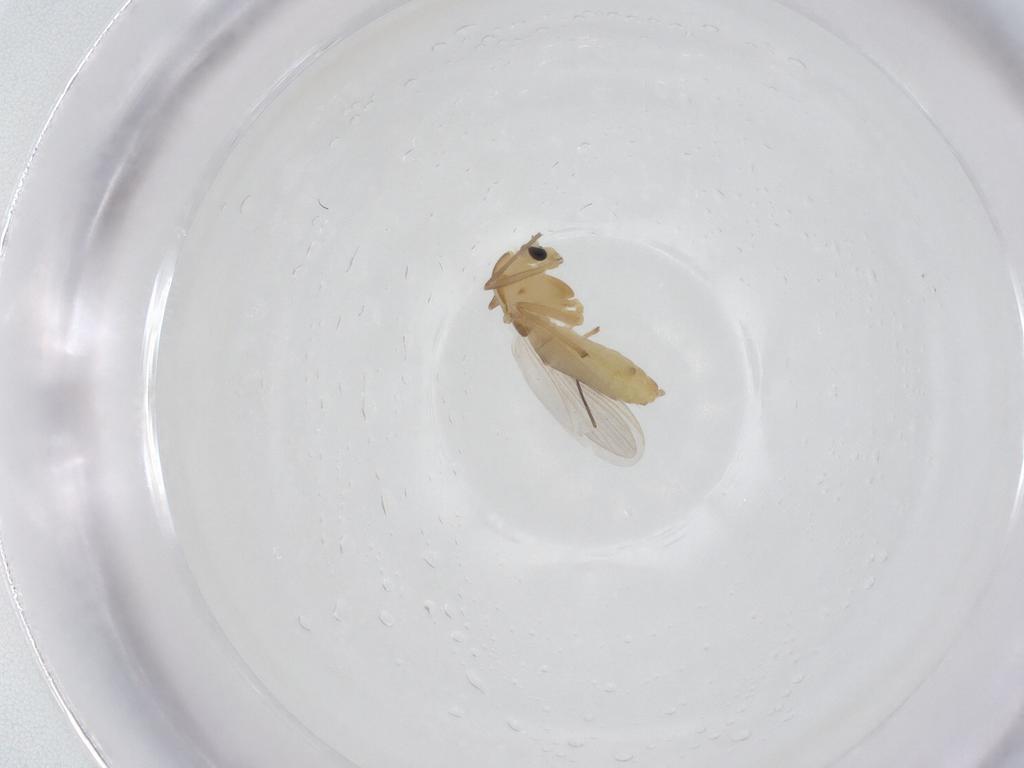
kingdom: Animalia
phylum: Arthropoda
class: Insecta
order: Diptera
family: Chironomidae
